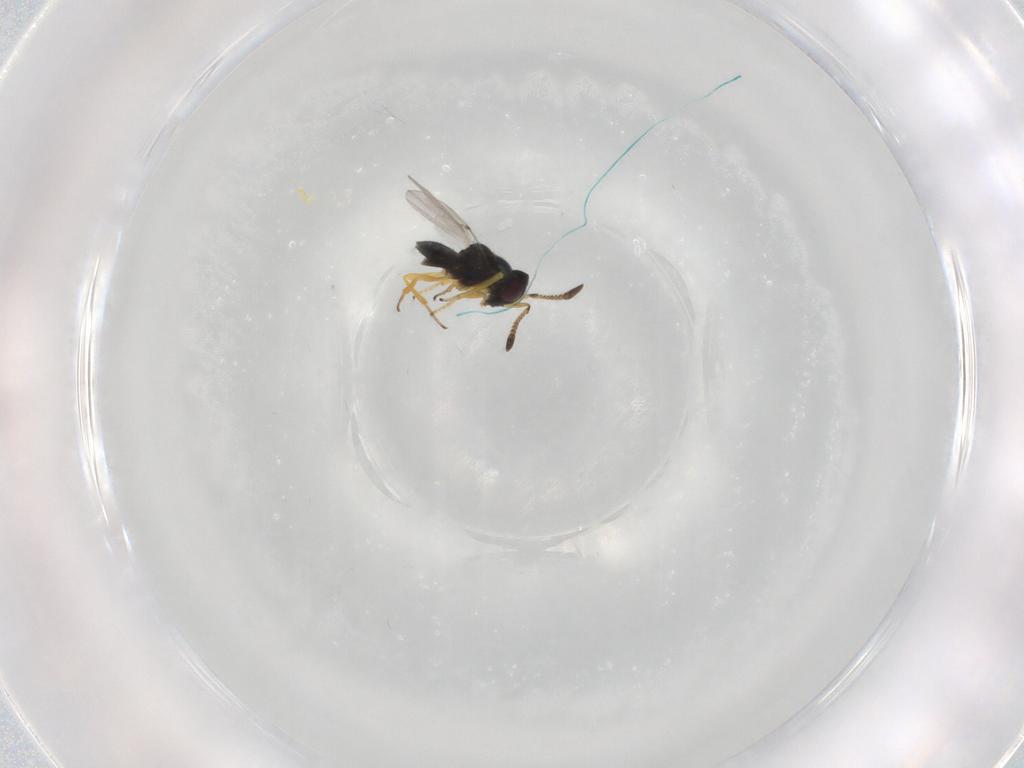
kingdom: Animalia
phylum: Arthropoda
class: Insecta
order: Hymenoptera
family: Encyrtidae
